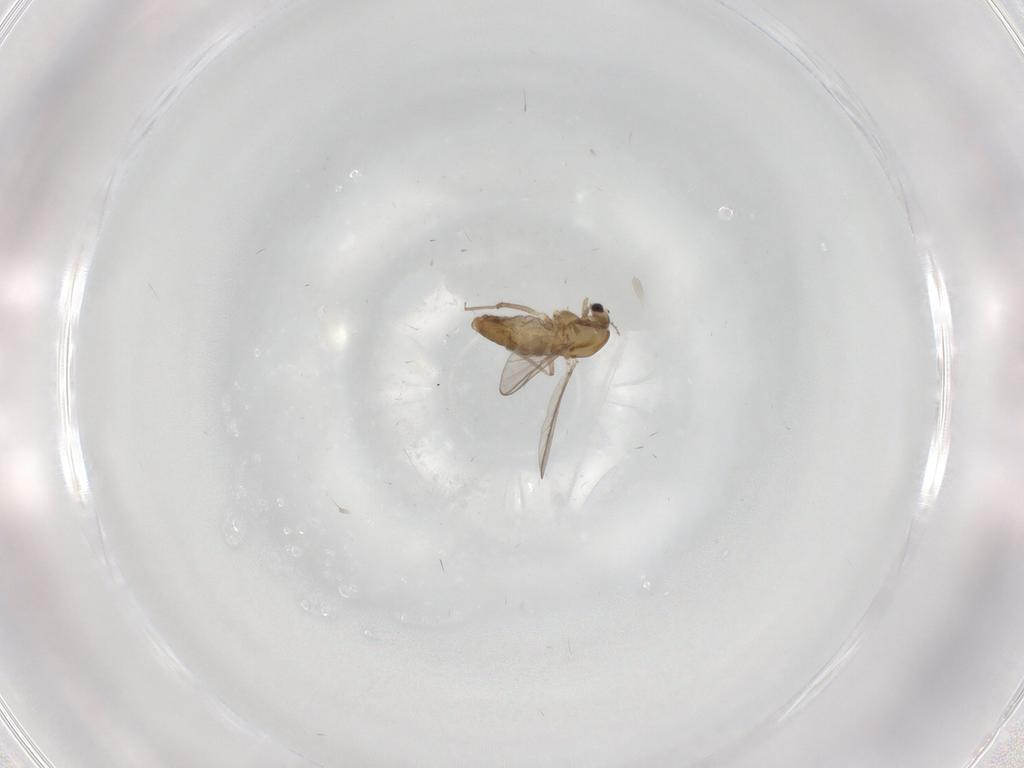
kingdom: Animalia
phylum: Arthropoda
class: Insecta
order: Diptera
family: Chironomidae
